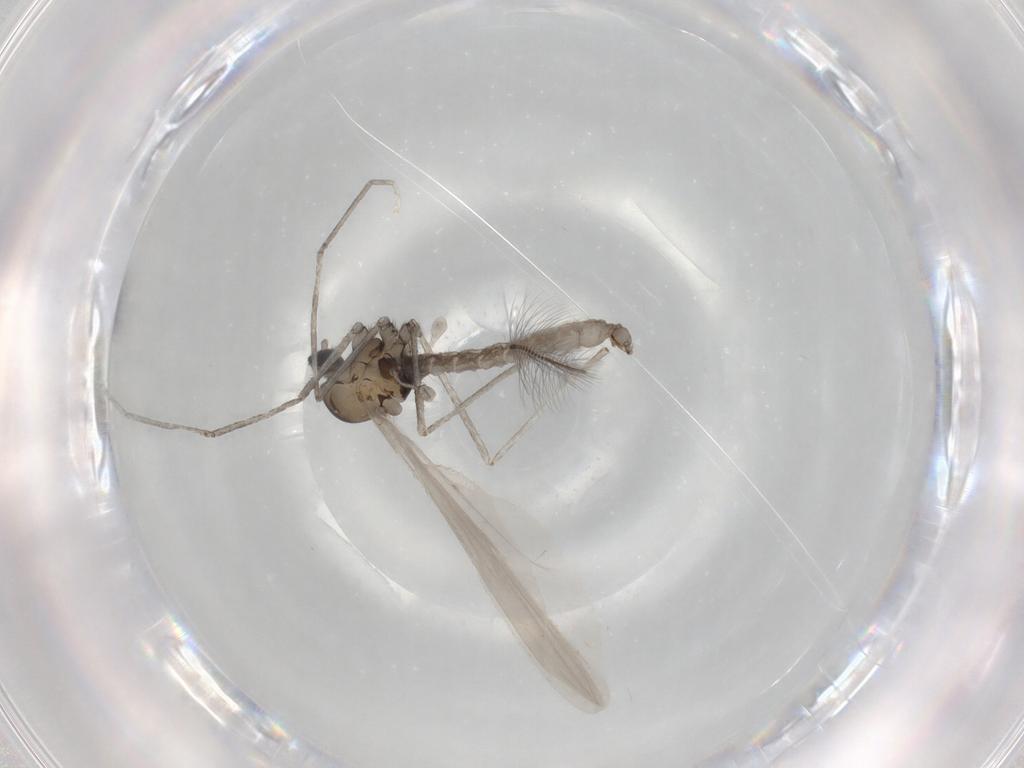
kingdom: Animalia
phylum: Arthropoda
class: Insecta
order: Diptera
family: Cecidomyiidae
